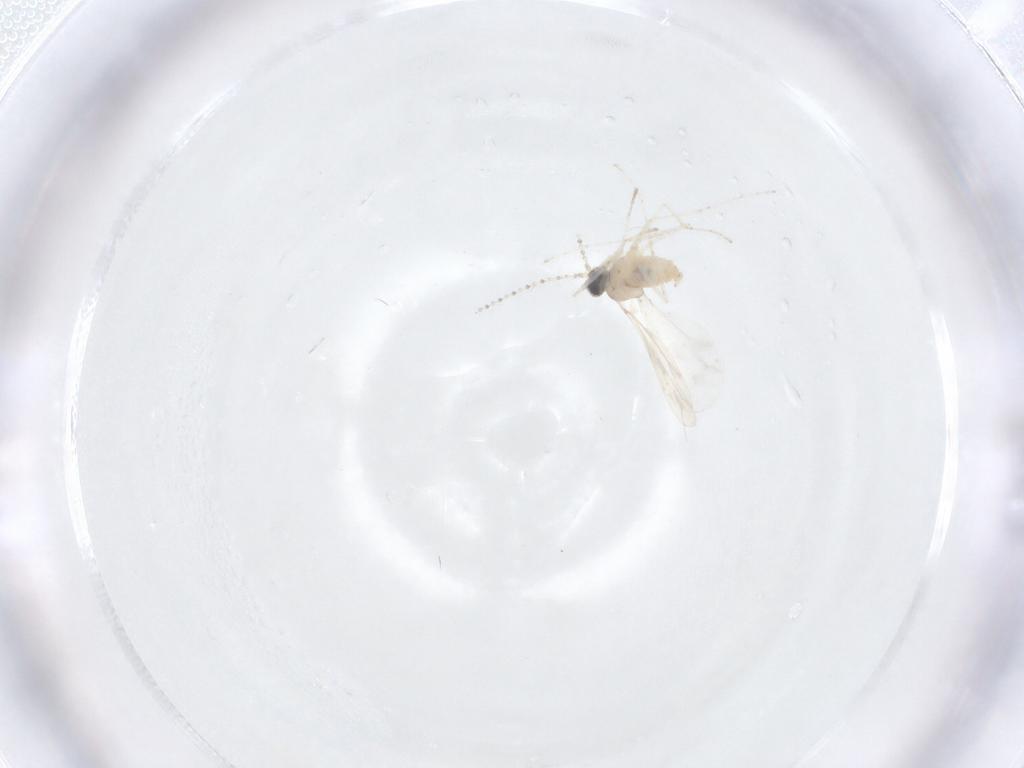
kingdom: Animalia
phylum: Arthropoda
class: Insecta
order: Diptera
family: Cecidomyiidae
